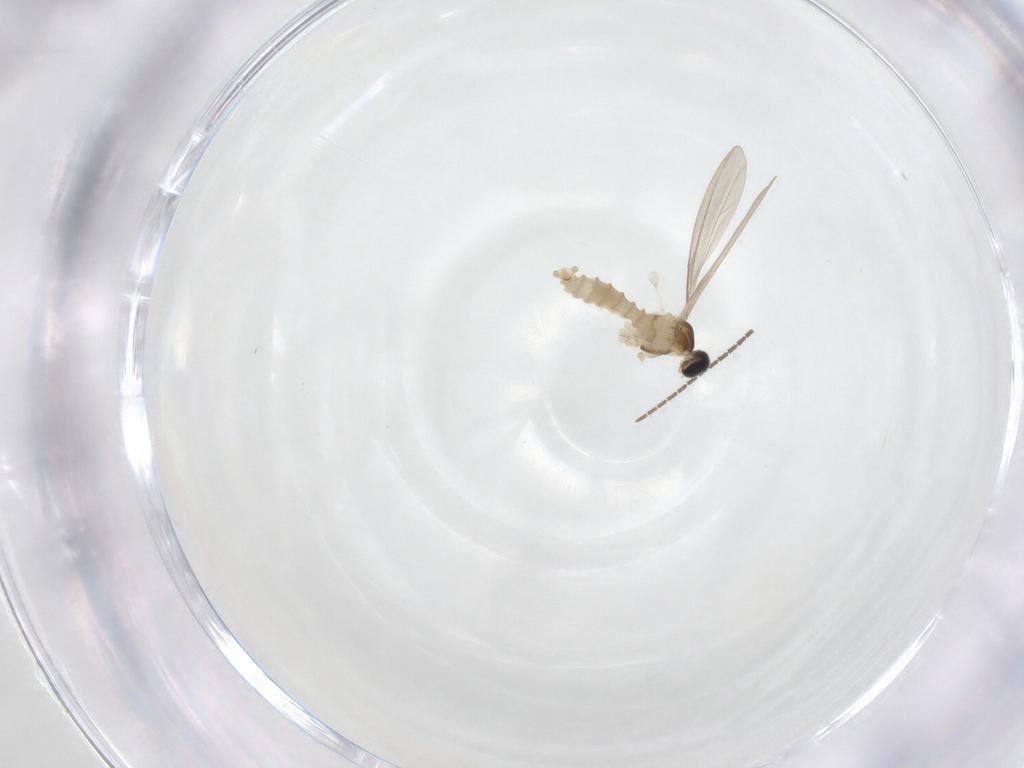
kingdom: Animalia
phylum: Arthropoda
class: Insecta
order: Diptera
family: Cecidomyiidae
